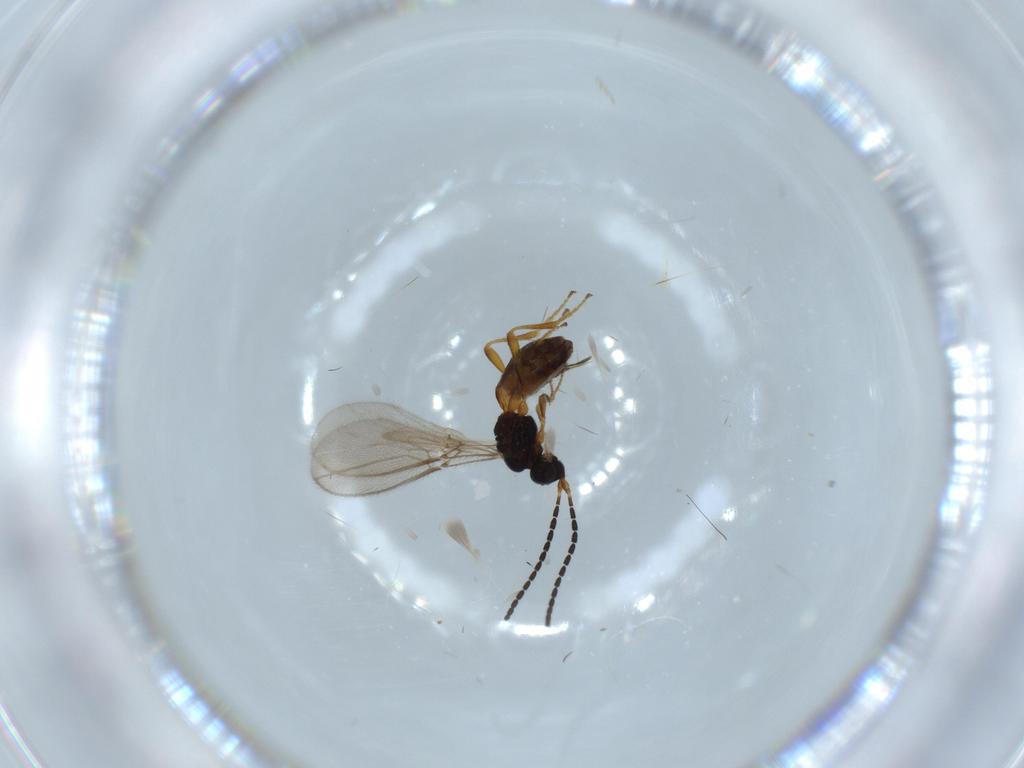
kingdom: Animalia
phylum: Arthropoda
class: Insecta
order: Hymenoptera
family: Braconidae
